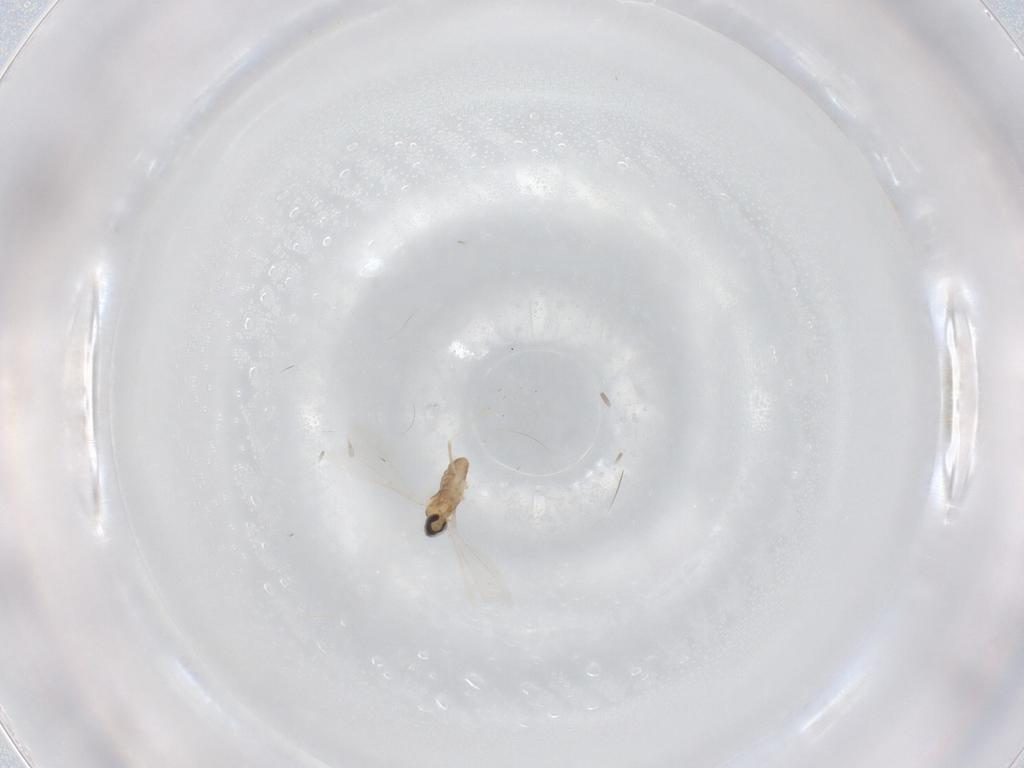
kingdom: Animalia
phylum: Arthropoda
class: Insecta
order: Diptera
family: Cecidomyiidae
